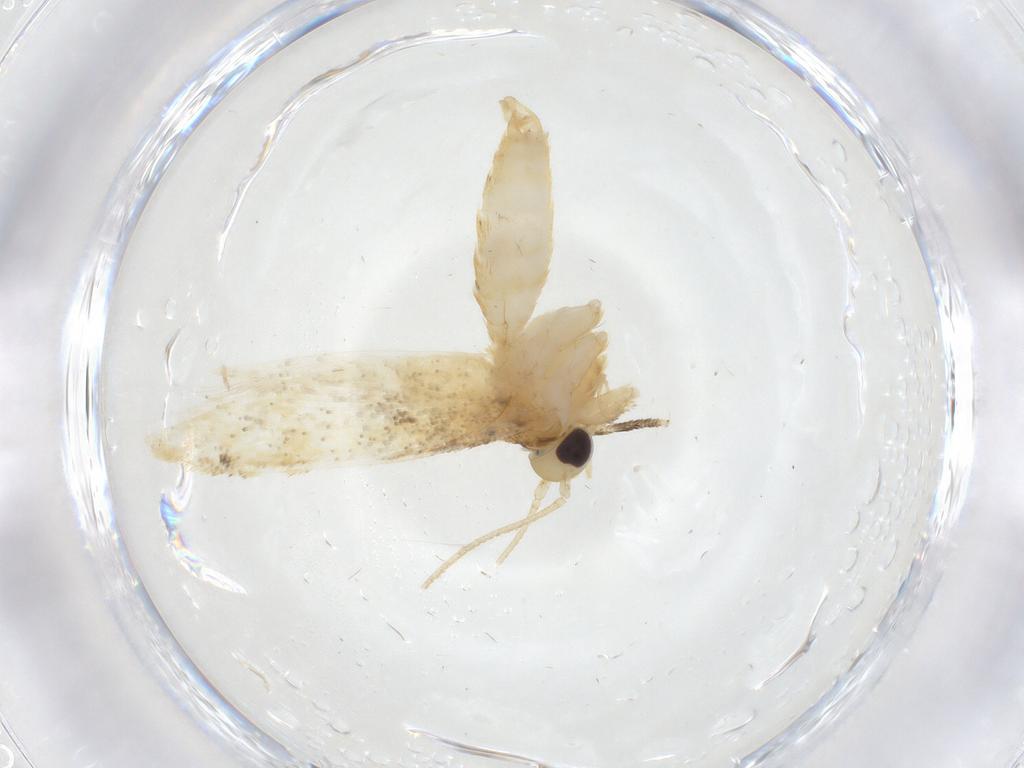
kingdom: Animalia
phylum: Arthropoda
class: Insecta
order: Lepidoptera
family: Erebidae
